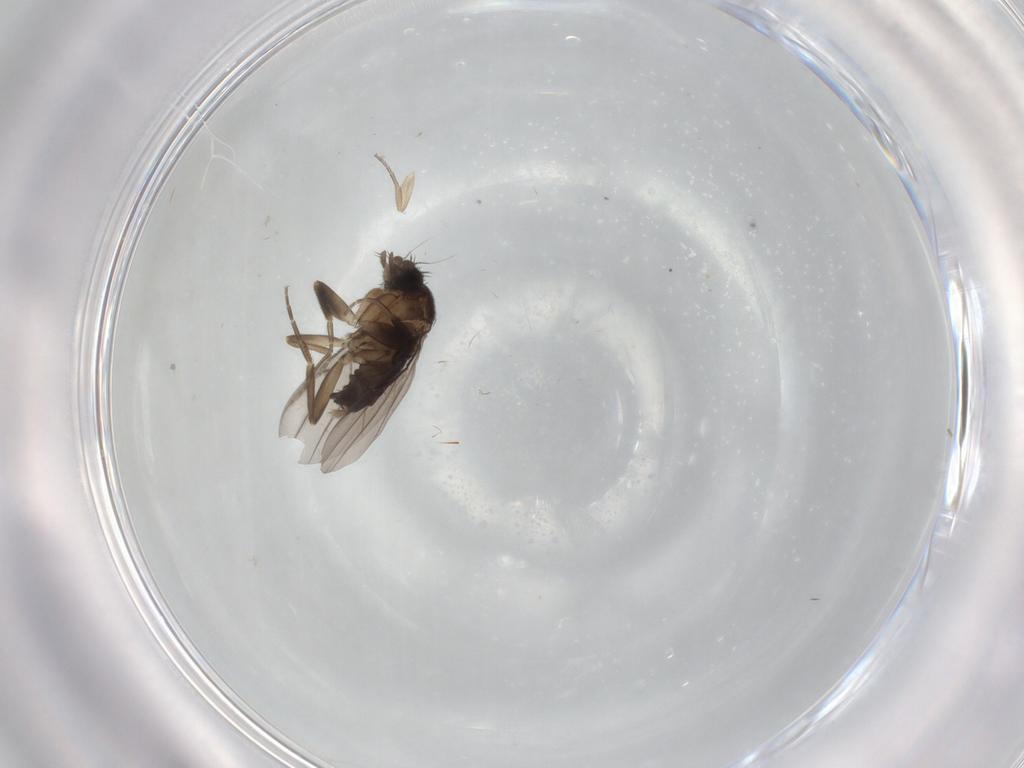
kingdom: Animalia
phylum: Arthropoda
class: Insecta
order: Diptera
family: Phoridae
